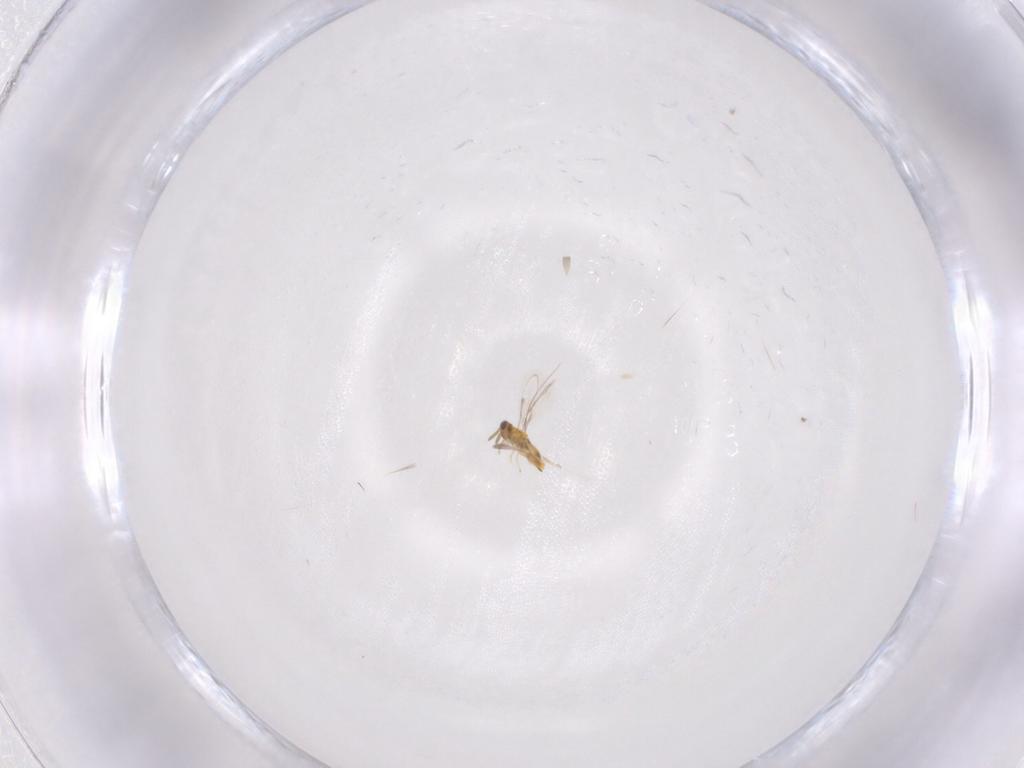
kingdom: Animalia
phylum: Arthropoda
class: Insecta
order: Hymenoptera
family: Aphelinidae
